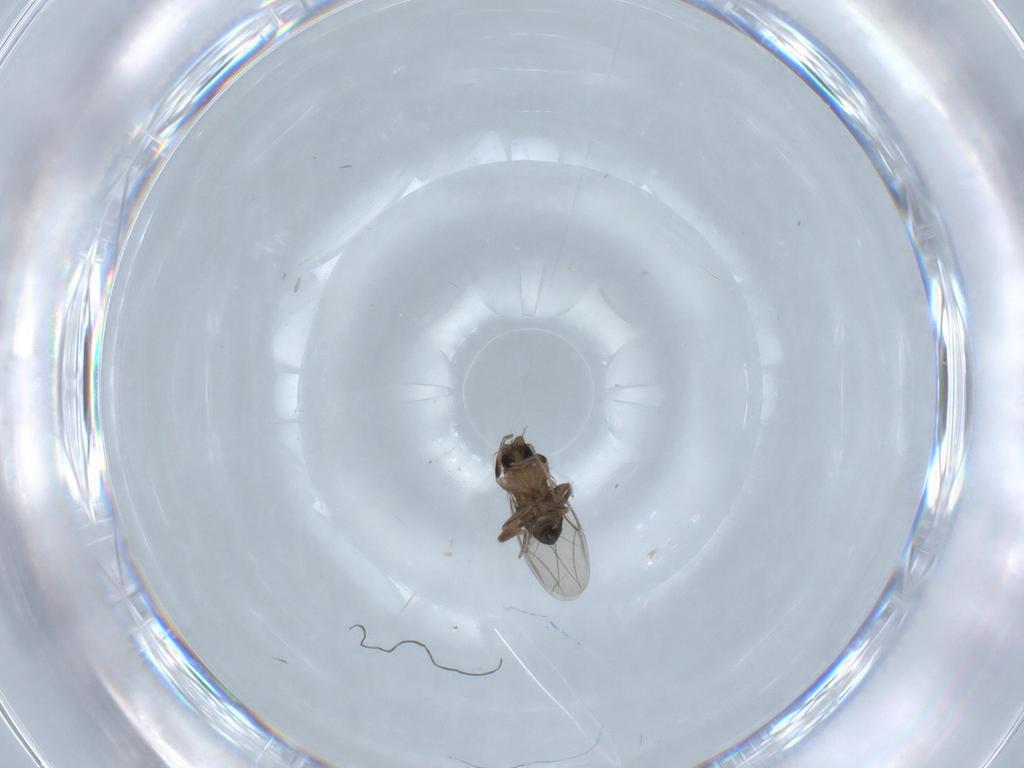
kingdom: Animalia
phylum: Arthropoda
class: Insecta
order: Diptera
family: Phoridae
